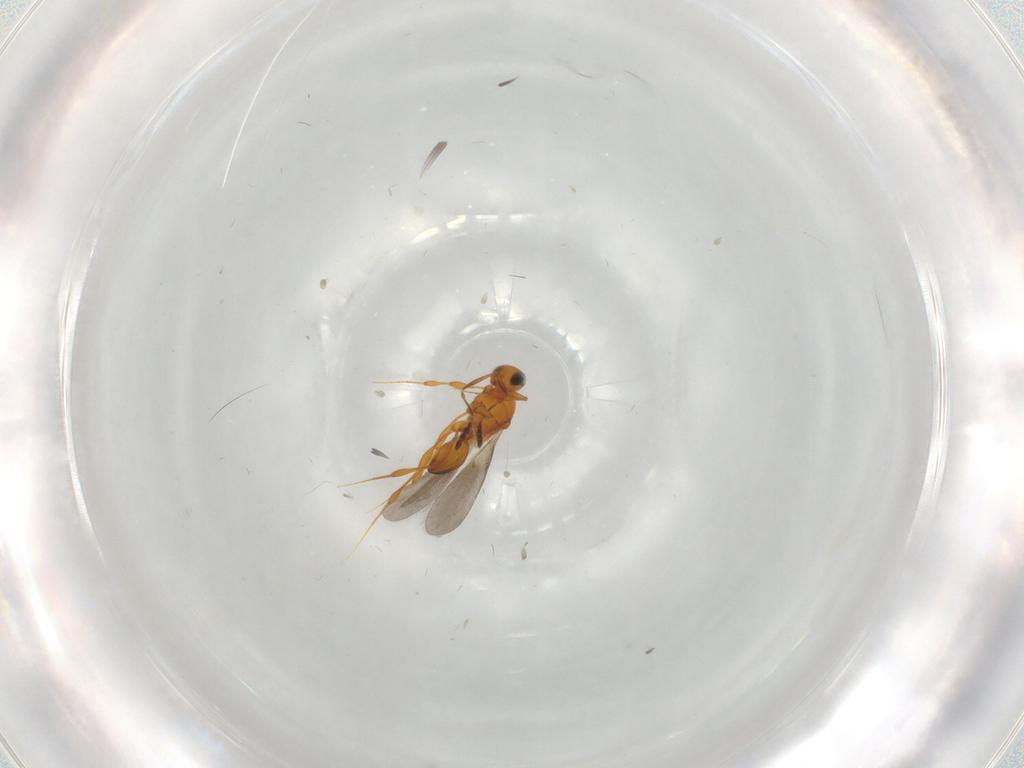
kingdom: Animalia
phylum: Arthropoda
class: Insecta
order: Hymenoptera
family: Platygastridae
